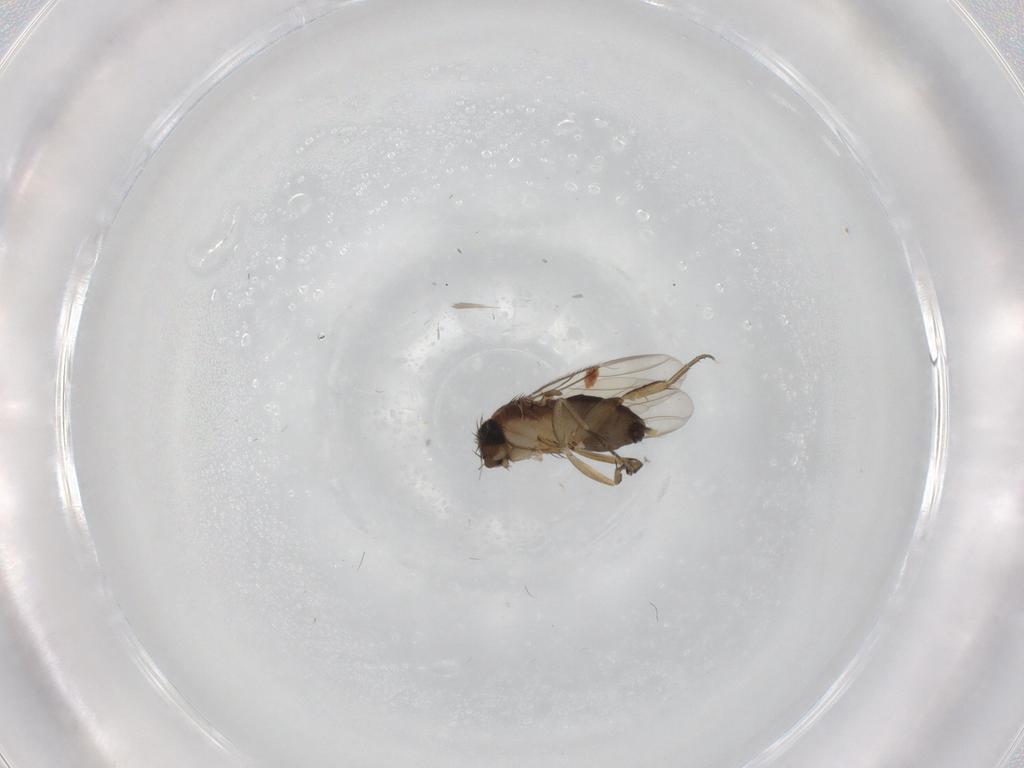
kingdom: Animalia
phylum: Arthropoda
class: Insecta
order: Diptera
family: Phoridae
